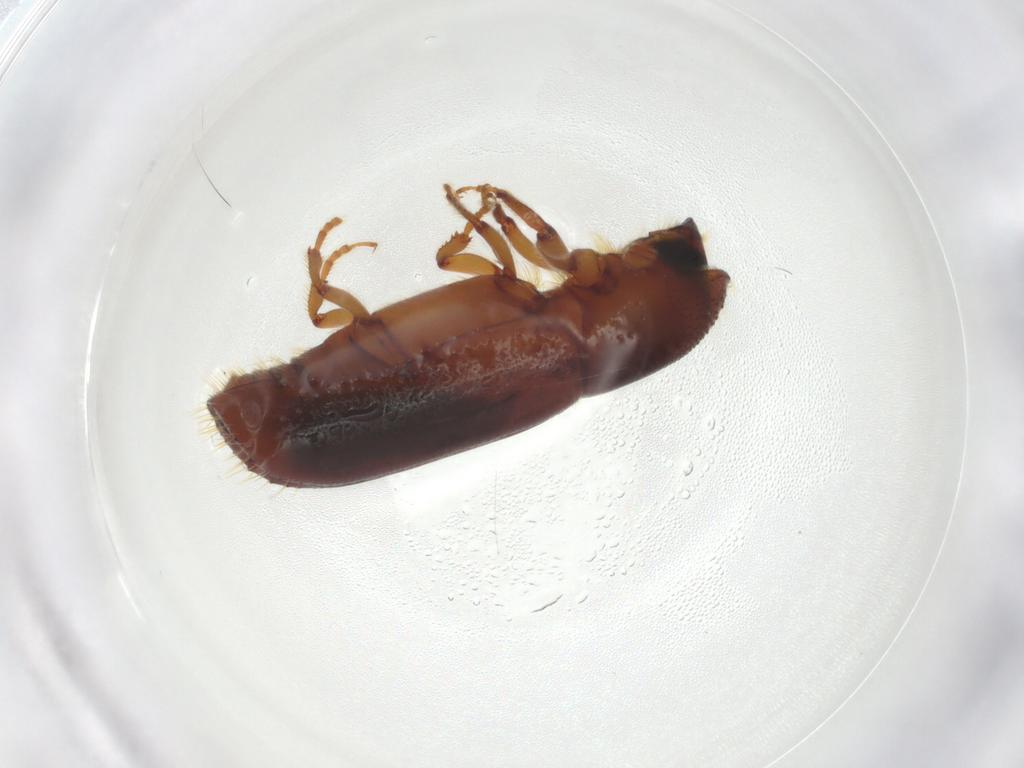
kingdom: Animalia
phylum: Arthropoda
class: Insecta
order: Coleoptera
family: Curculionidae
